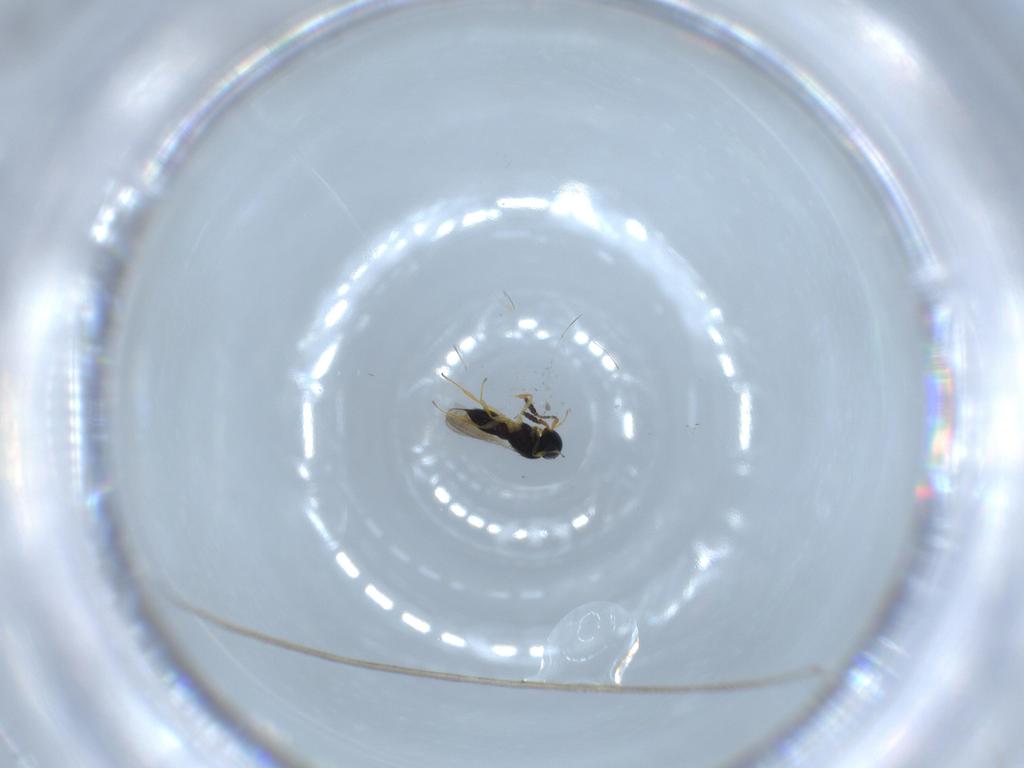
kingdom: Animalia
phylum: Arthropoda
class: Insecta
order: Hymenoptera
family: Scelionidae
